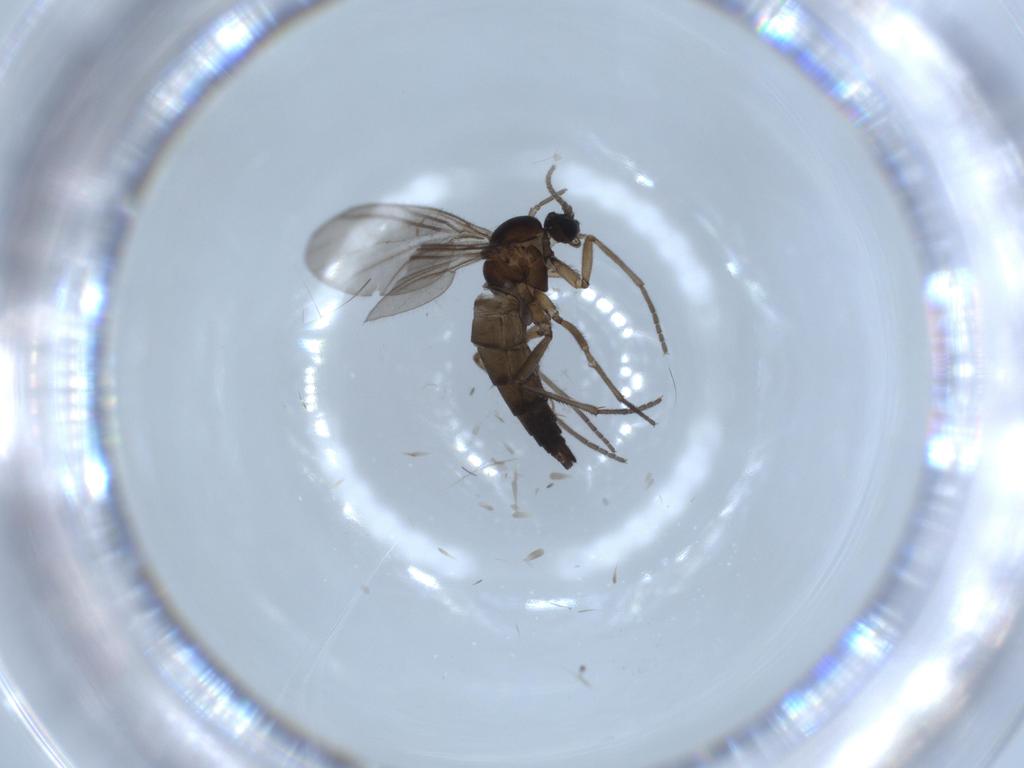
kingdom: Animalia
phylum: Arthropoda
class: Insecta
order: Diptera
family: Sciaridae
